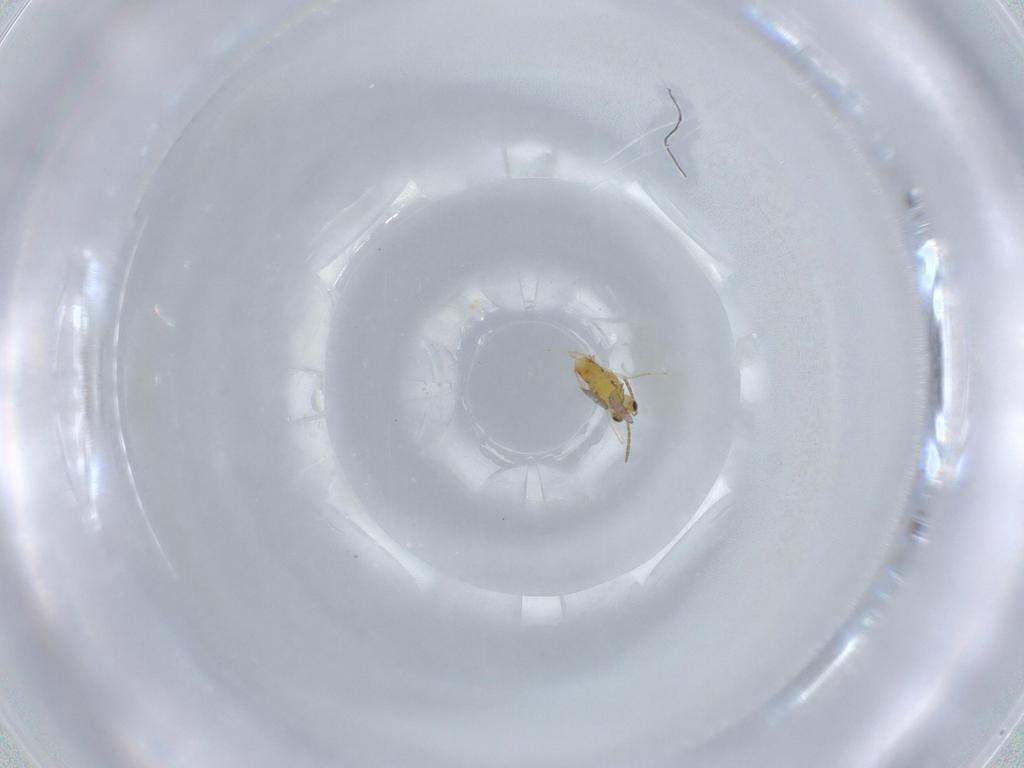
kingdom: Animalia
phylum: Arthropoda
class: Insecta
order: Hymenoptera
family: Aphelinidae
